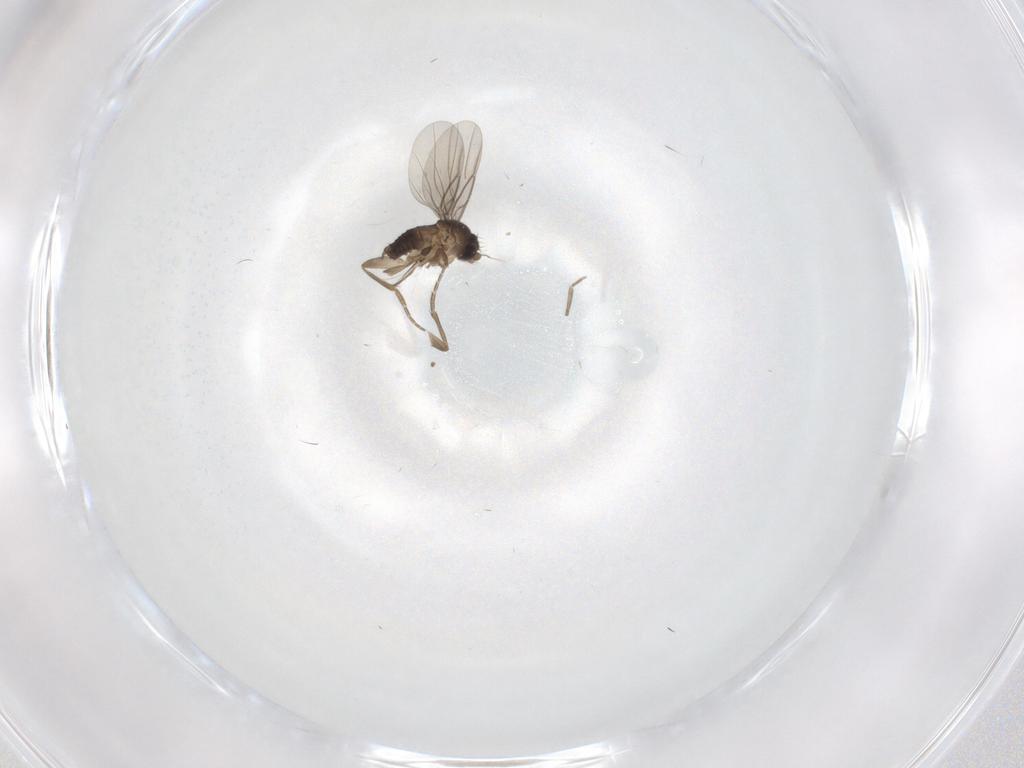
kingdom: Animalia
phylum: Arthropoda
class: Insecta
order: Diptera
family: Phoridae
